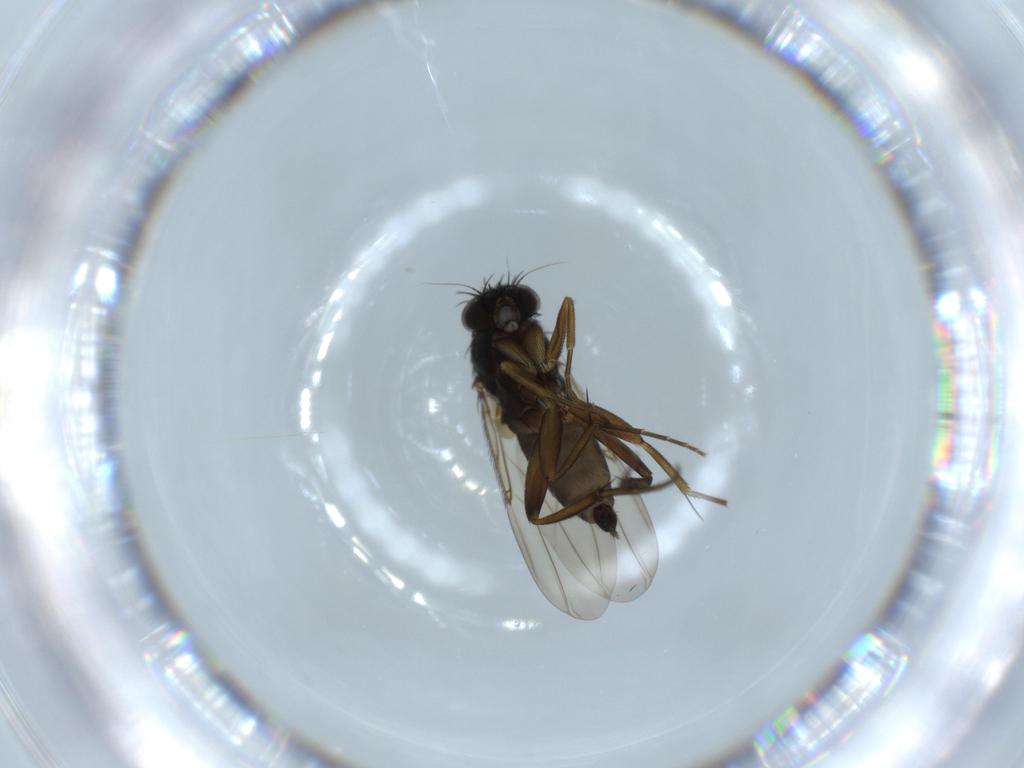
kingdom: Animalia
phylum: Arthropoda
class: Insecta
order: Diptera
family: Phoridae
